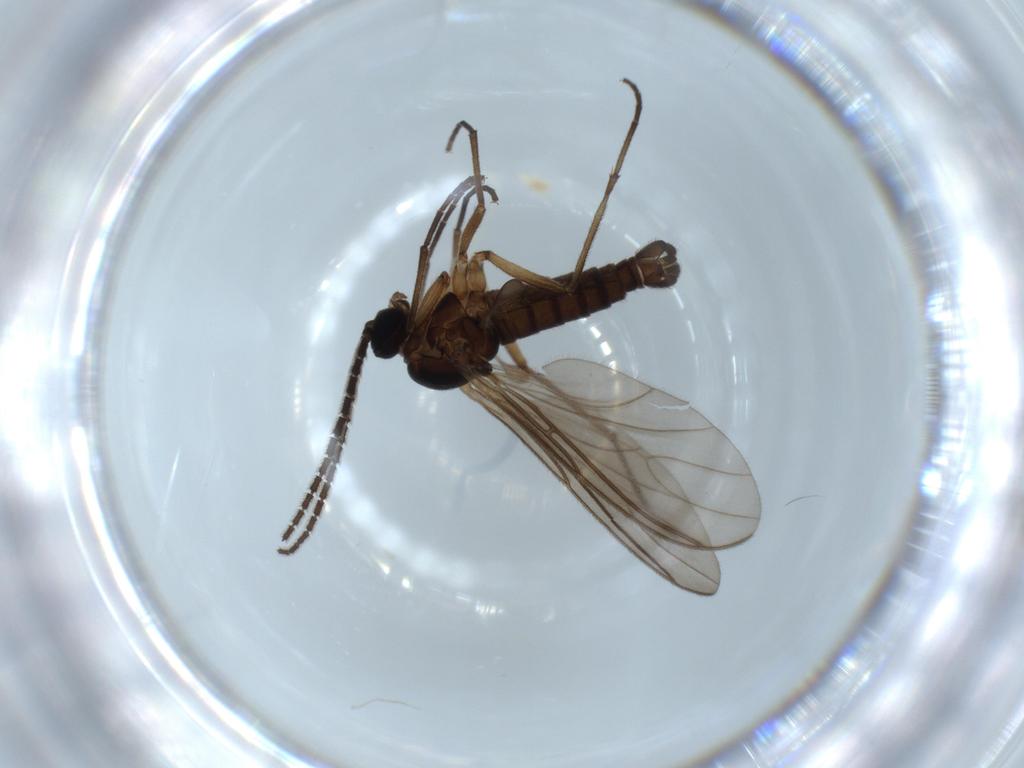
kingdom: Animalia
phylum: Arthropoda
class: Insecta
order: Diptera
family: Sciaridae
